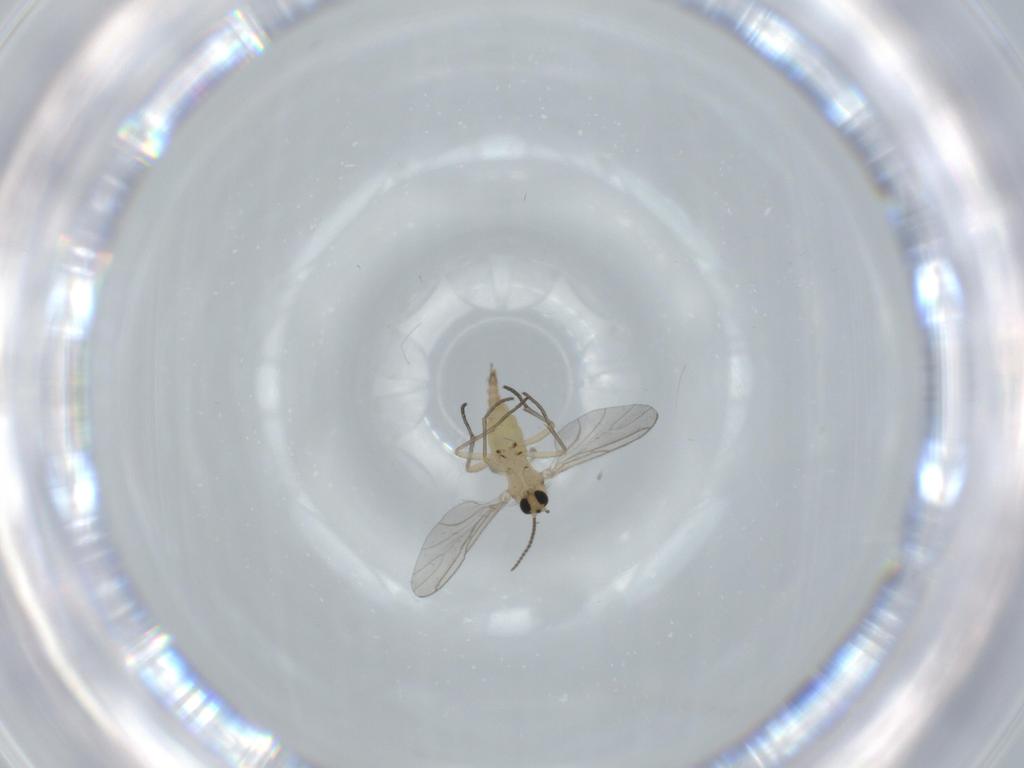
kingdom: Animalia
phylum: Arthropoda
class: Insecta
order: Diptera
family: Sciaridae
